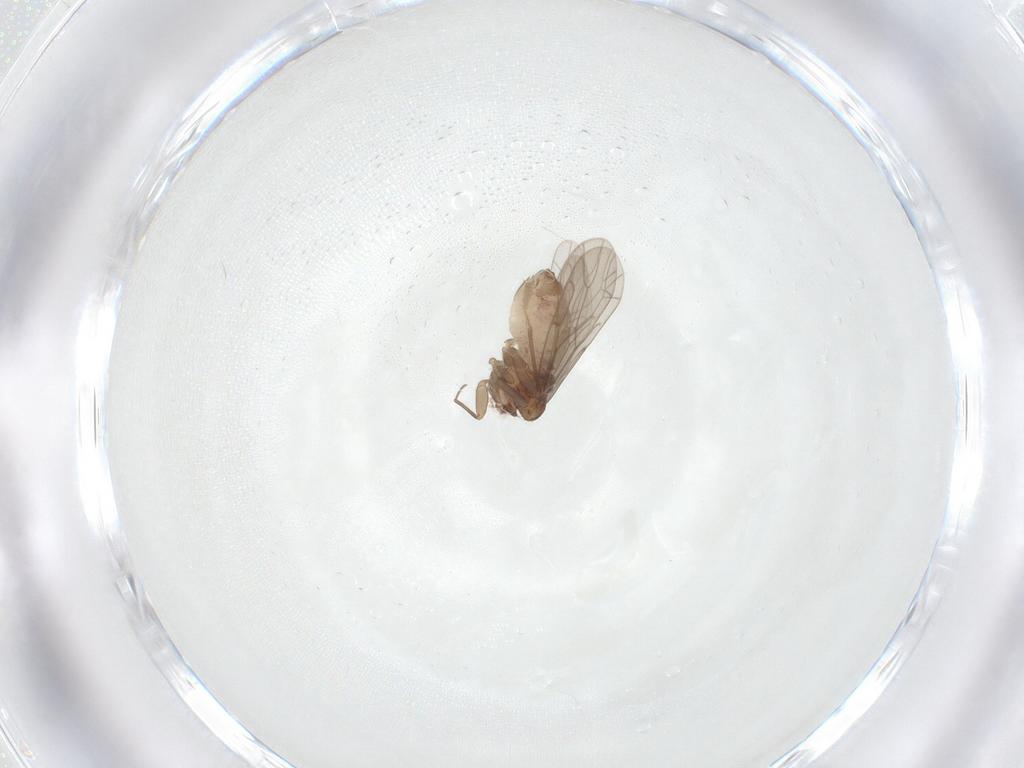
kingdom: Animalia
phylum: Arthropoda
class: Insecta
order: Psocodea
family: Ectopsocidae
